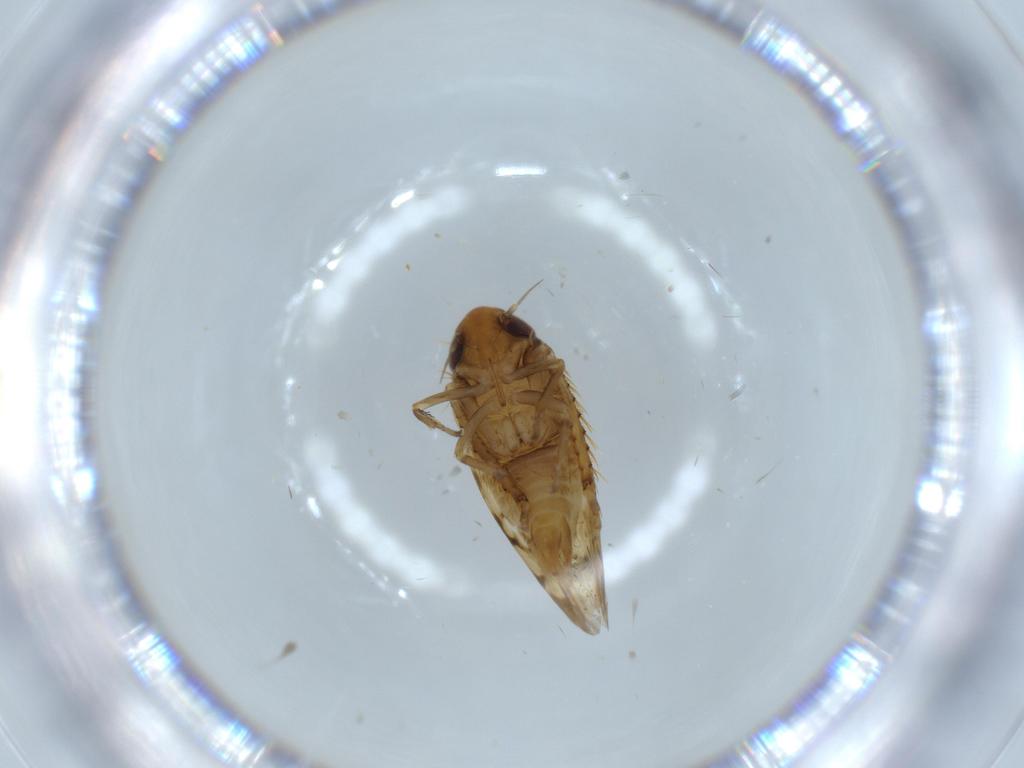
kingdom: Animalia
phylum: Arthropoda
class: Insecta
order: Hemiptera
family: Cicadellidae
